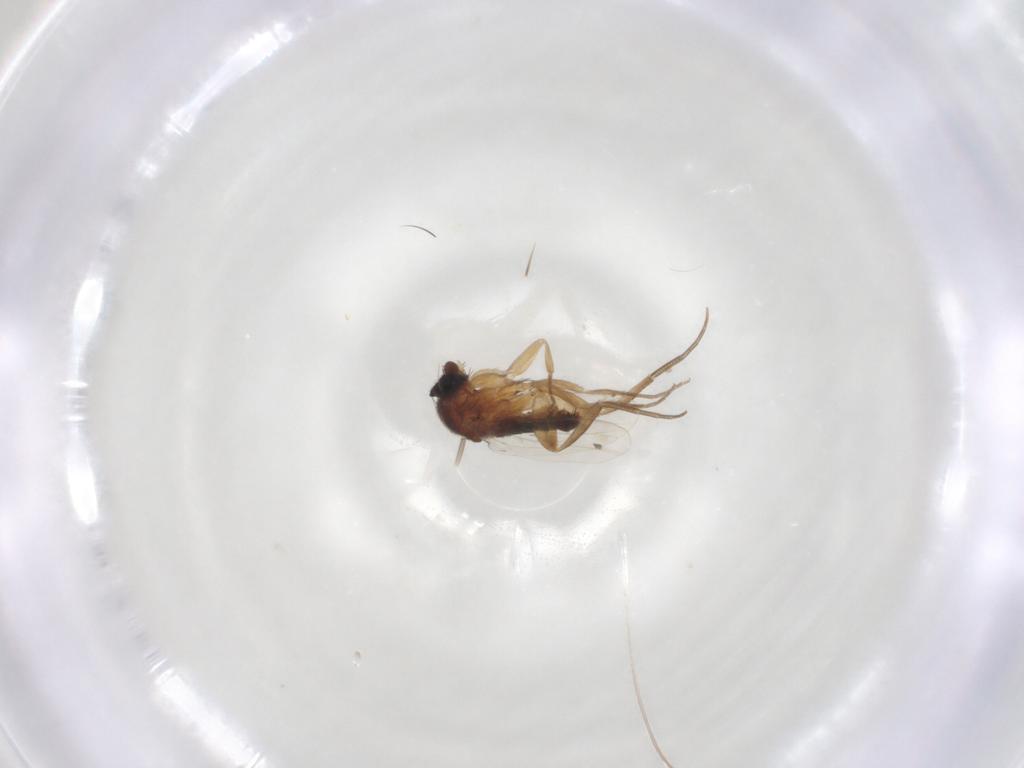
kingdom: Animalia
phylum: Arthropoda
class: Insecta
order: Diptera
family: Phoridae
